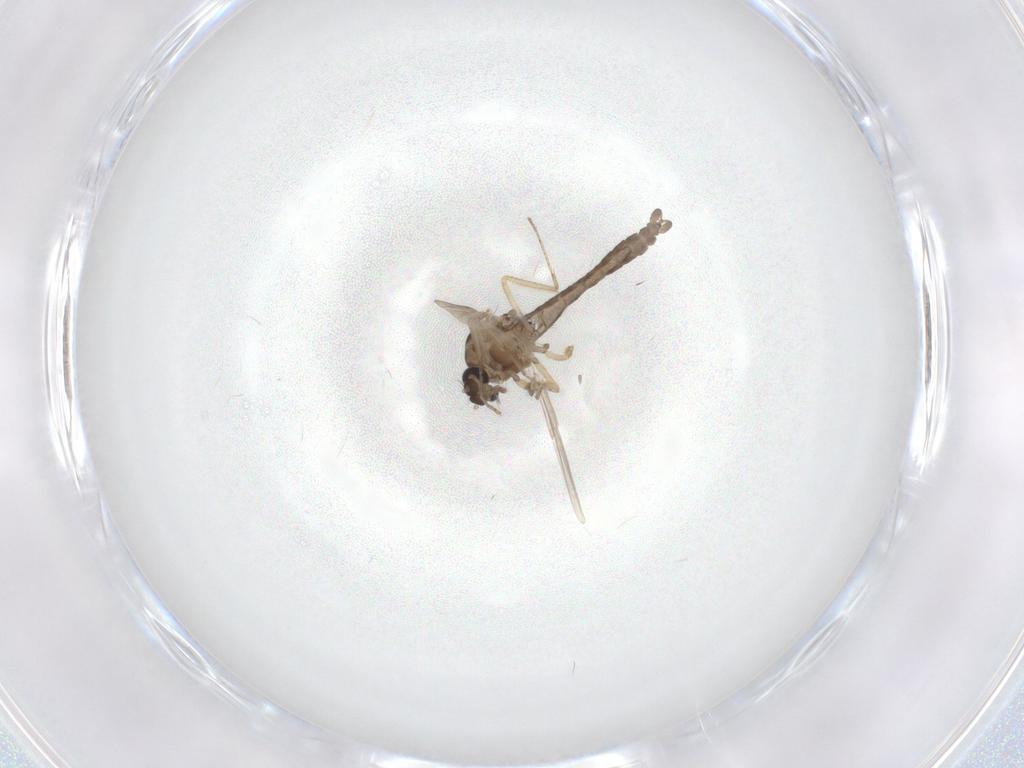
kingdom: Animalia
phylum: Arthropoda
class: Insecta
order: Diptera
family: Ceratopogonidae
